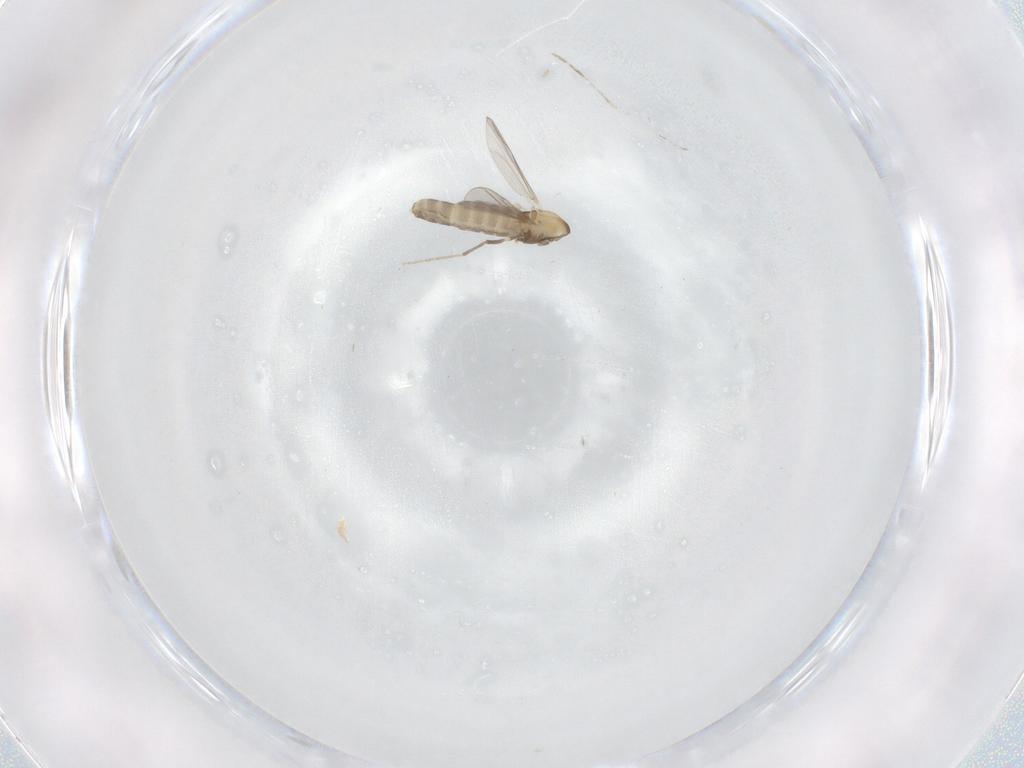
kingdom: Animalia
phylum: Arthropoda
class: Insecta
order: Diptera
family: Chironomidae
